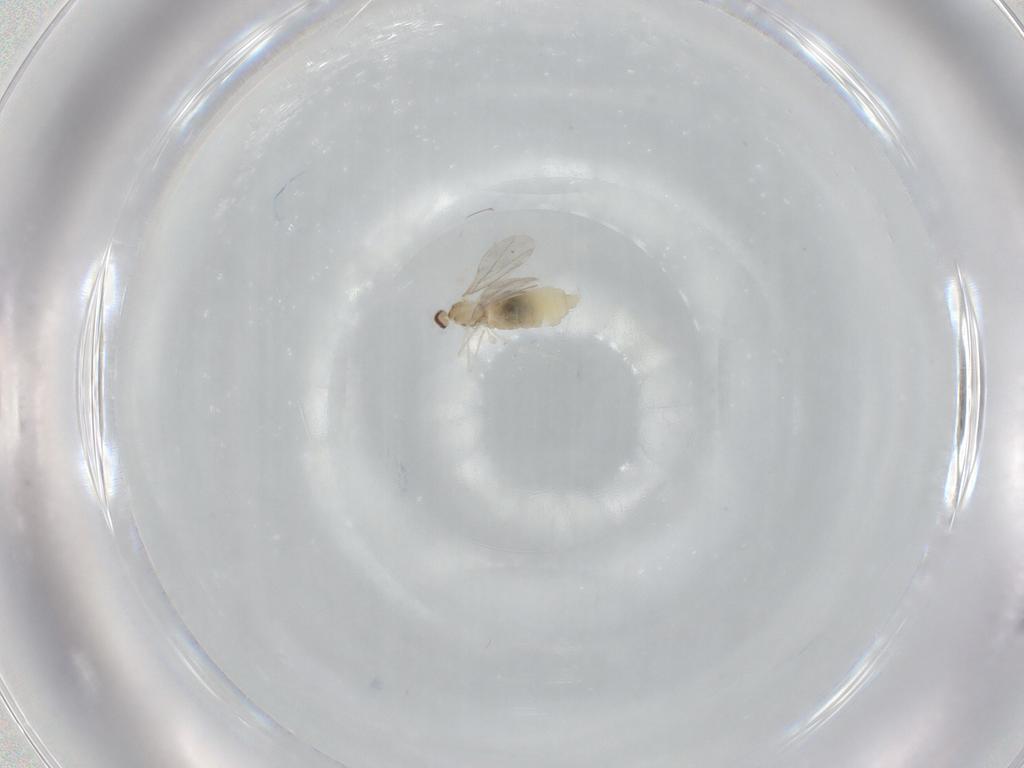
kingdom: Animalia
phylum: Arthropoda
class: Insecta
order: Diptera
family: Cecidomyiidae
